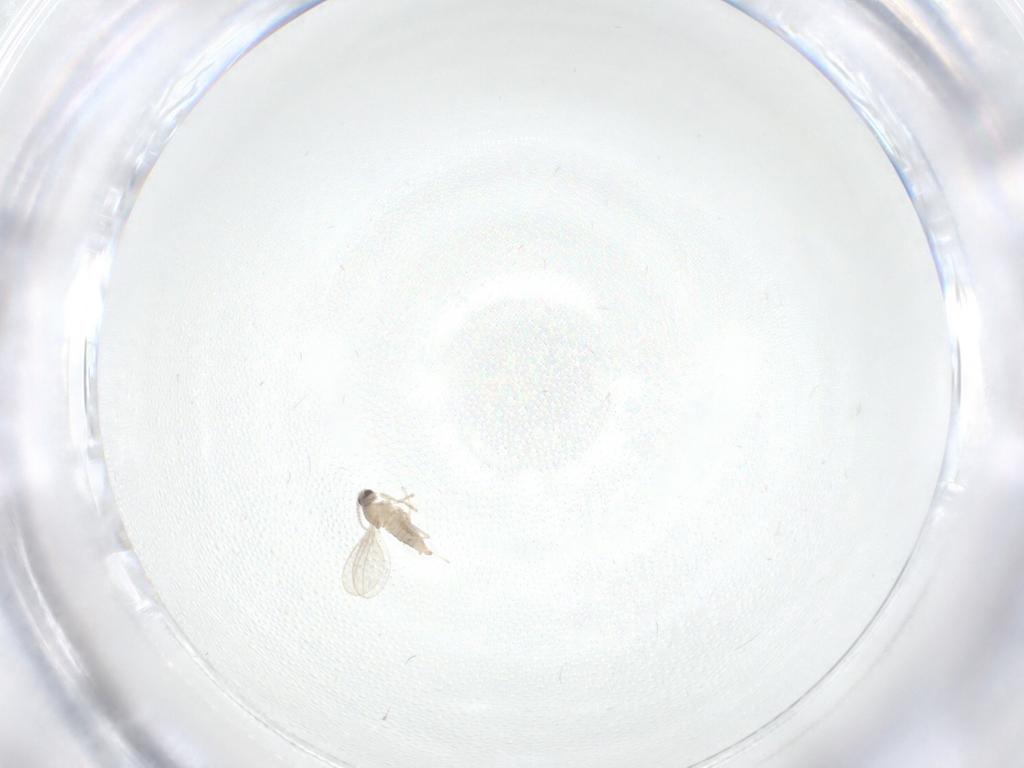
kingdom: Animalia
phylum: Arthropoda
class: Insecta
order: Diptera
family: Cecidomyiidae
